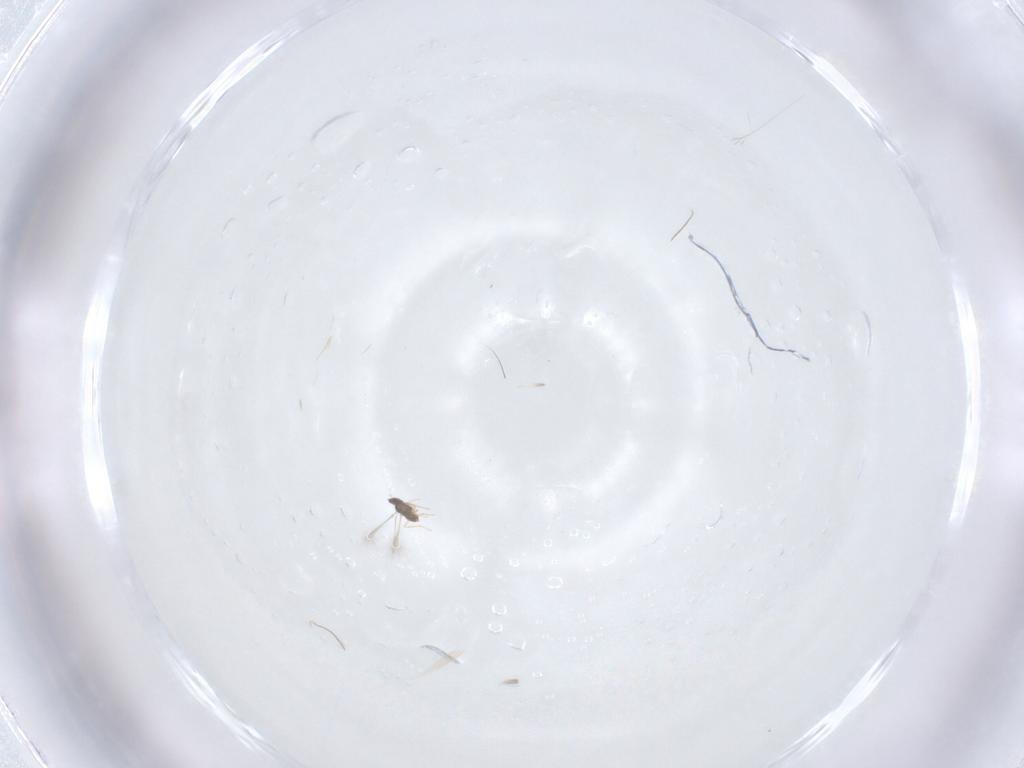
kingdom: Animalia
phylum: Arthropoda
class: Insecta
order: Hymenoptera
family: Mymaridae
